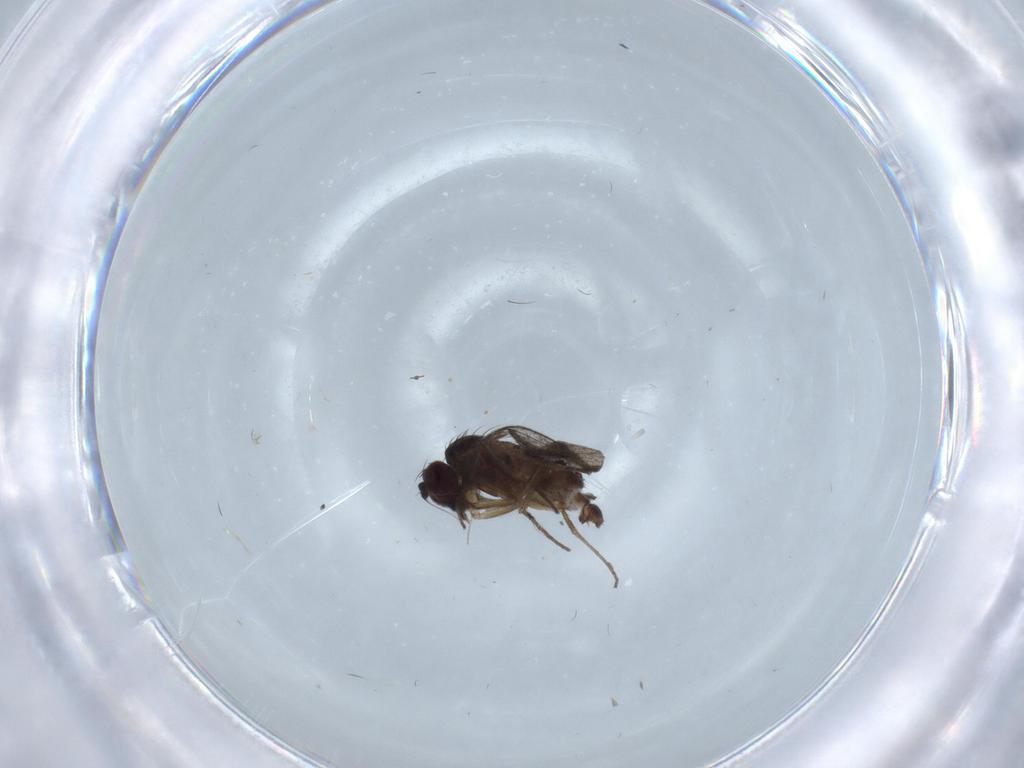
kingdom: Animalia
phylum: Arthropoda
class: Insecta
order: Diptera
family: Dolichopodidae
